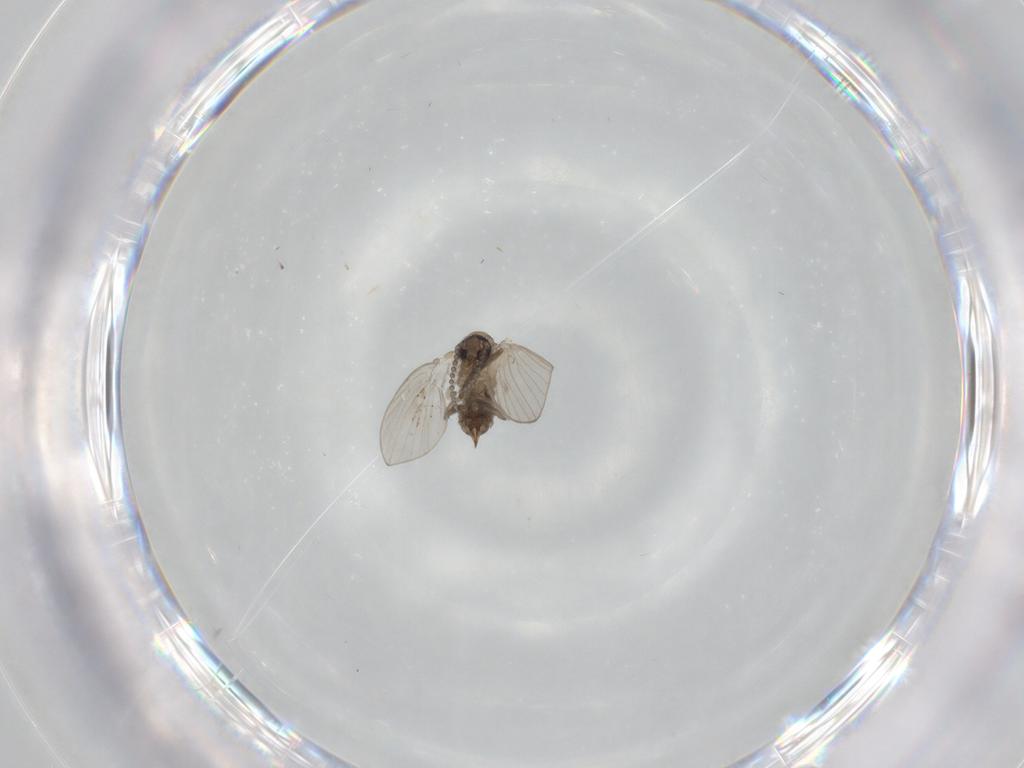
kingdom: Animalia
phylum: Arthropoda
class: Insecta
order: Diptera
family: Psychodidae
